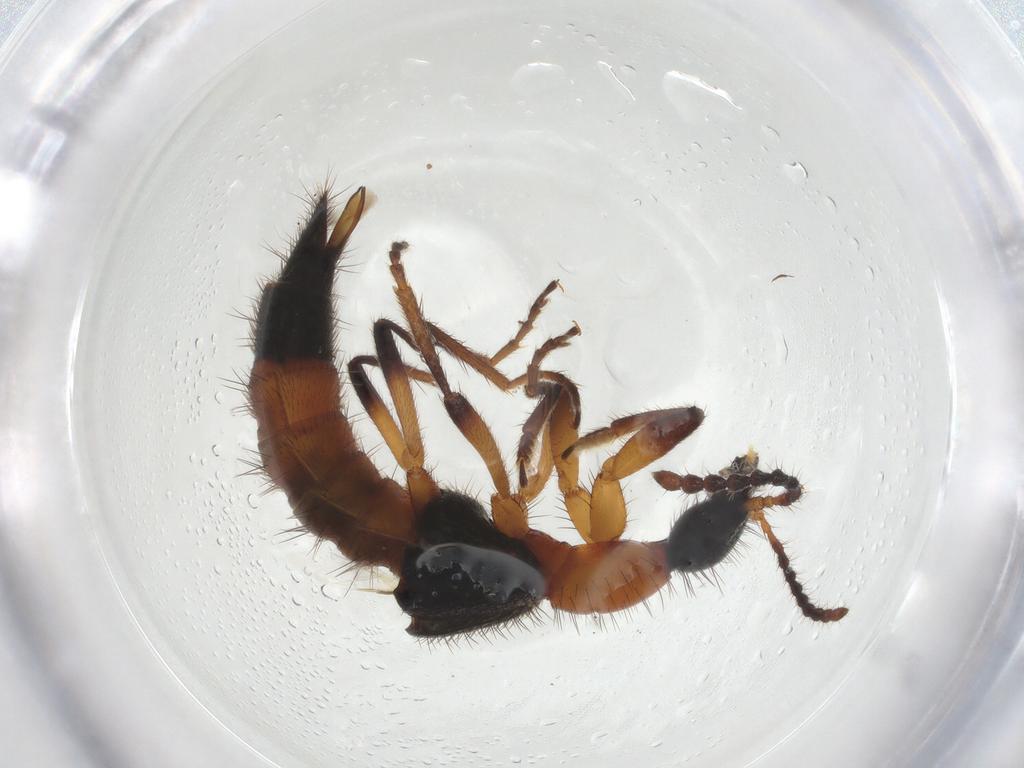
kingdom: Animalia
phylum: Arthropoda
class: Insecta
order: Coleoptera
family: Staphylinidae
